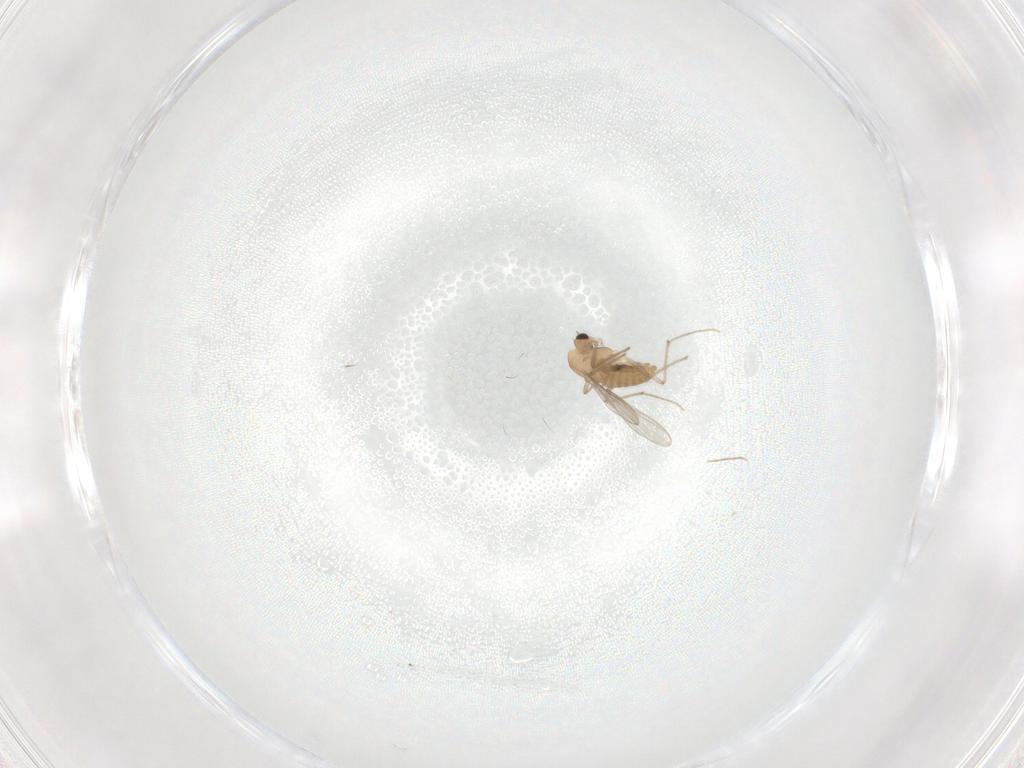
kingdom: Animalia
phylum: Arthropoda
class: Insecta
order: Diptera
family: Chironomidae
